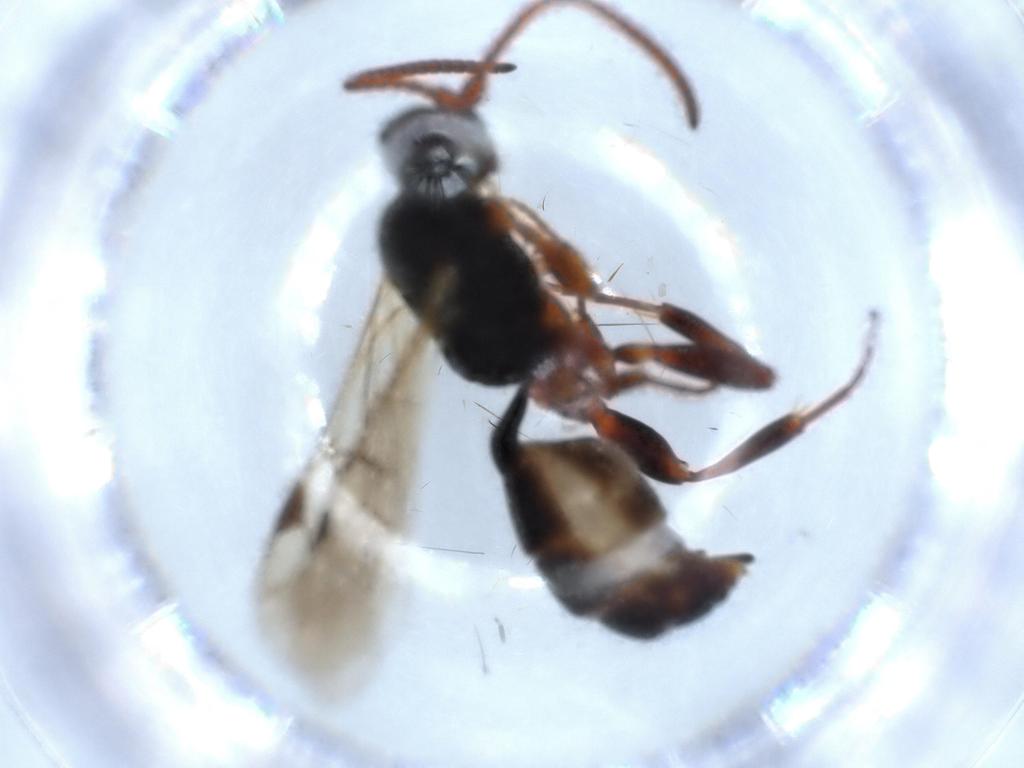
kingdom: Animalia
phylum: Arthropoda
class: Insecta
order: Hymenoptera
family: Ichneumonidae
